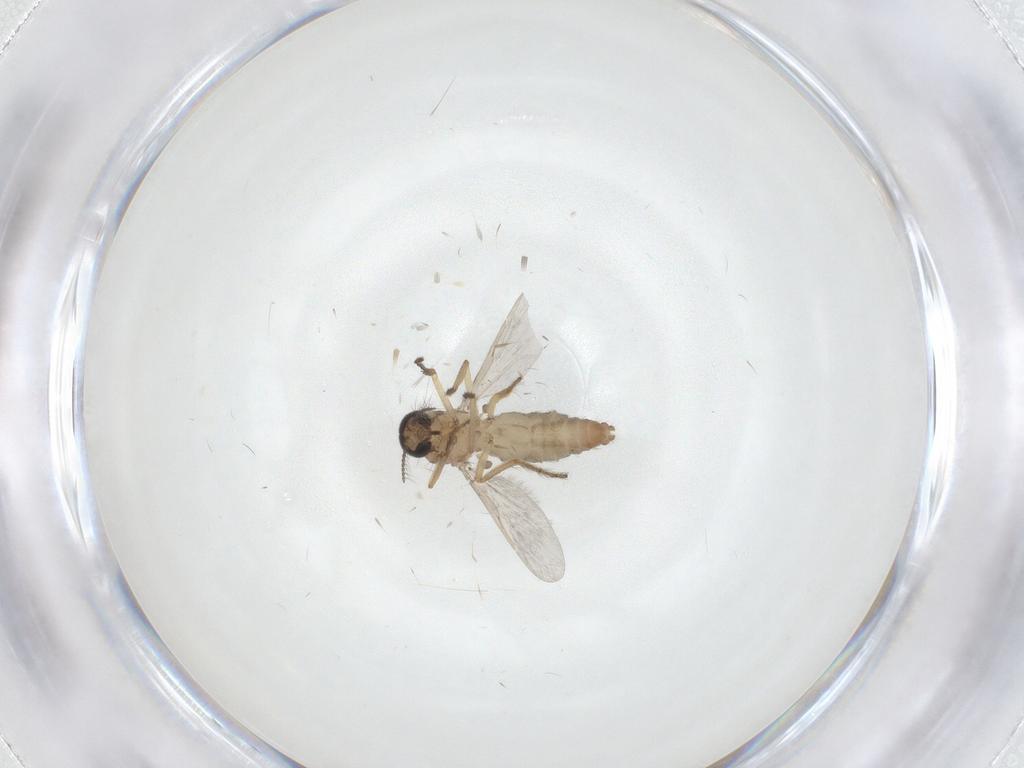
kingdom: Animalia
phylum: Arthropoda
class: Insecta
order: Diptera
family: Ceratopogonidae
